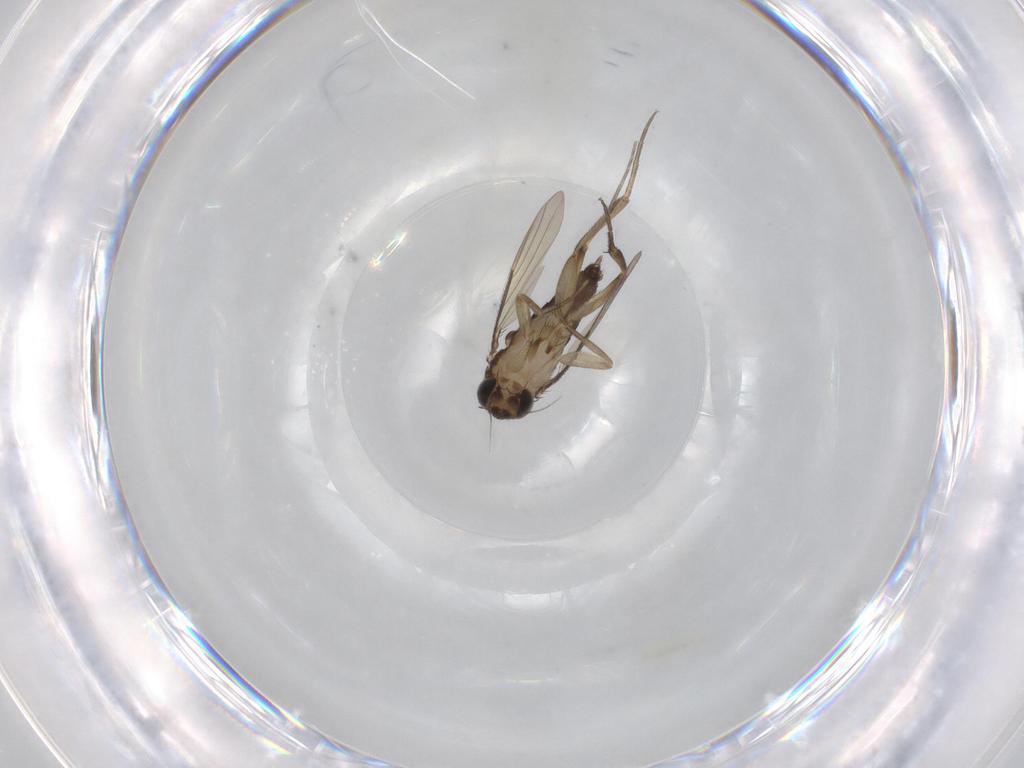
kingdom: Animalia
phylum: Arthropoda
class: Insecta
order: Diptera
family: Phoridae
